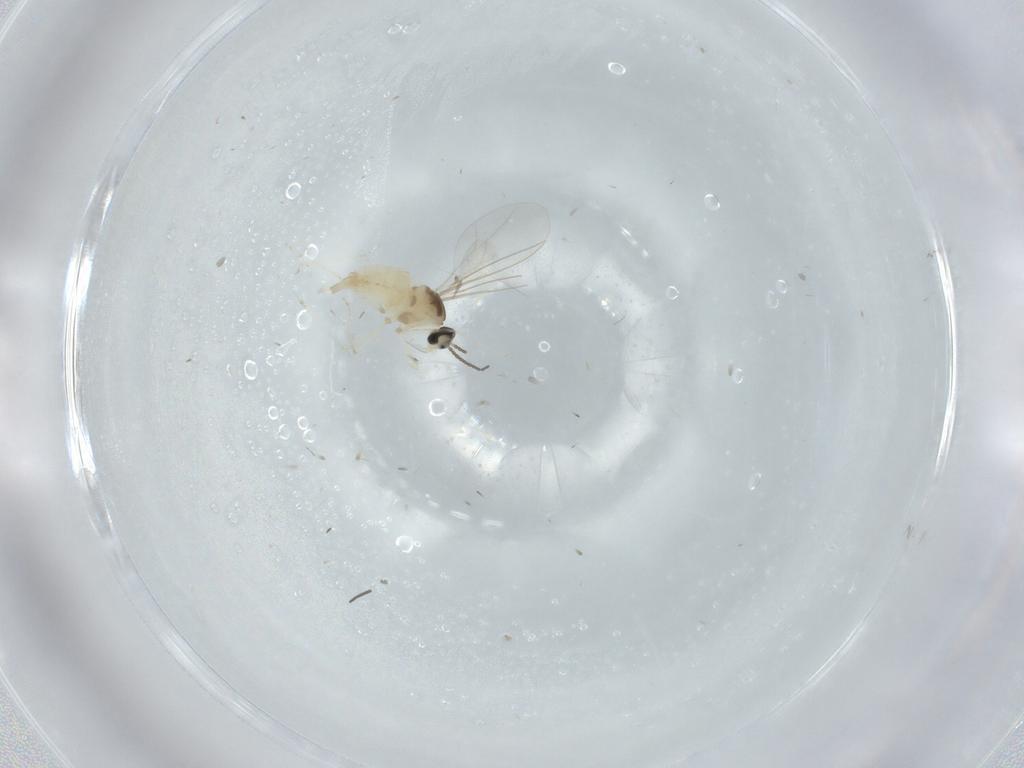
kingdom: Animalia
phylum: Arthropoda
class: Insecta
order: Diptera
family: Cecidomyiidae
